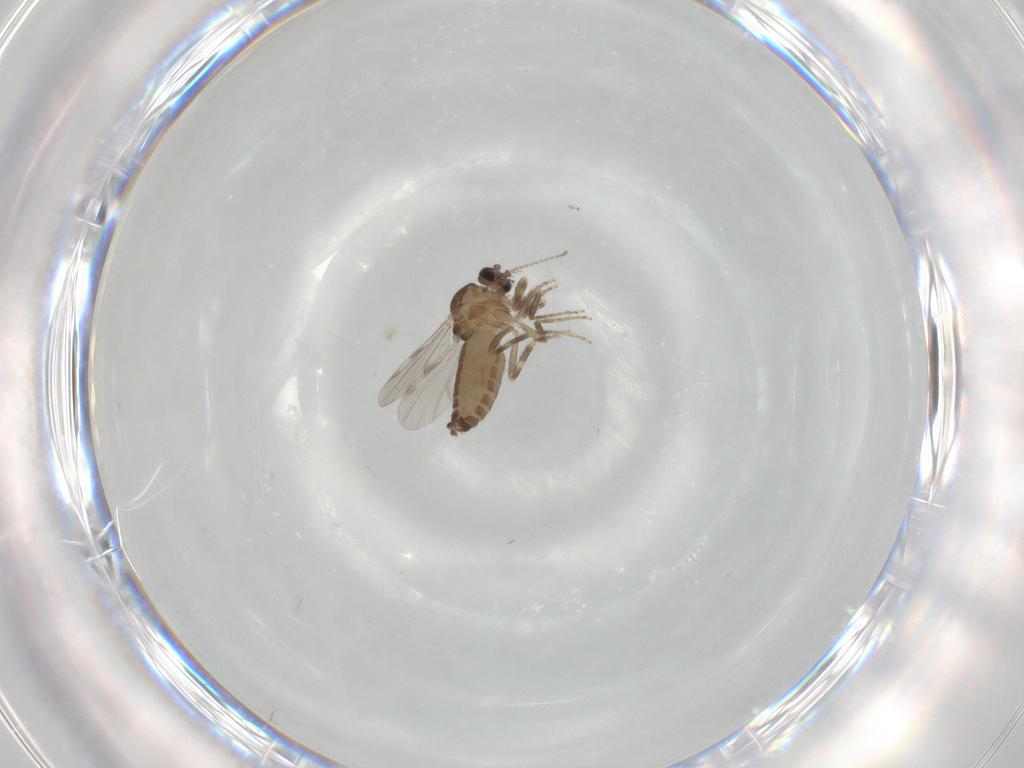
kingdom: Animalia
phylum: Arthropoda
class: Insecta
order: Diptera
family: Ceratopogonidae
